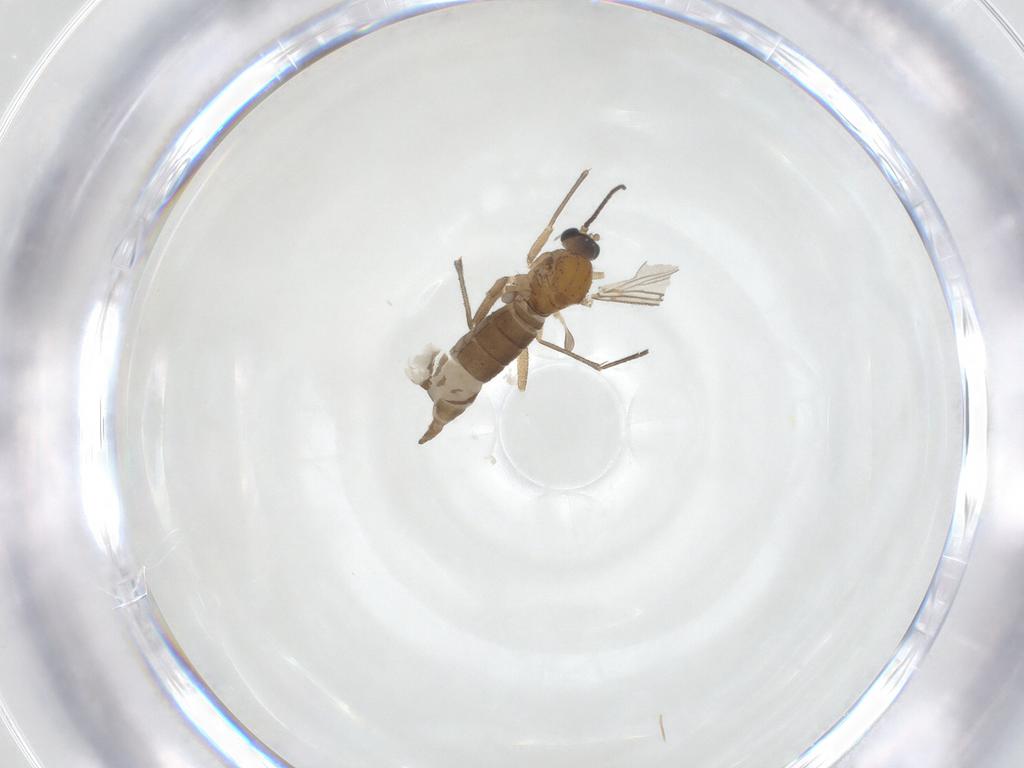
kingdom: Animalia
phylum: Arthropoda
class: Insecta
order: Diptera
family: Sciaridae
